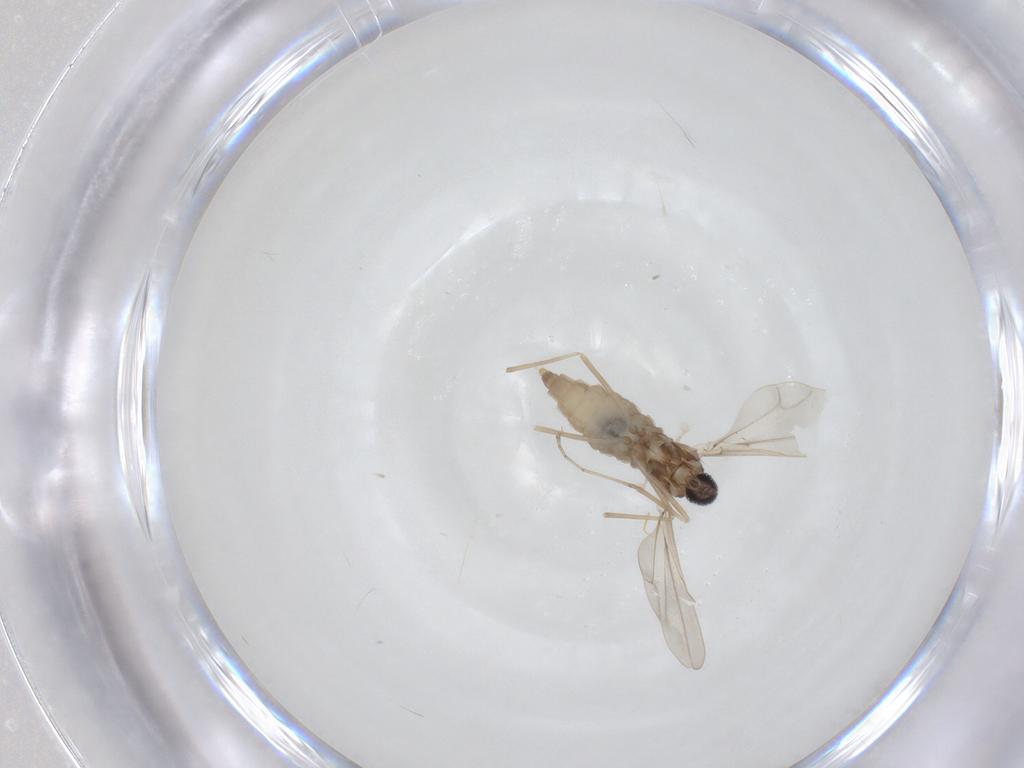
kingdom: Animalia
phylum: Arthropoda
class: Insecta
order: Diptera
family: Cecidomyiidae
